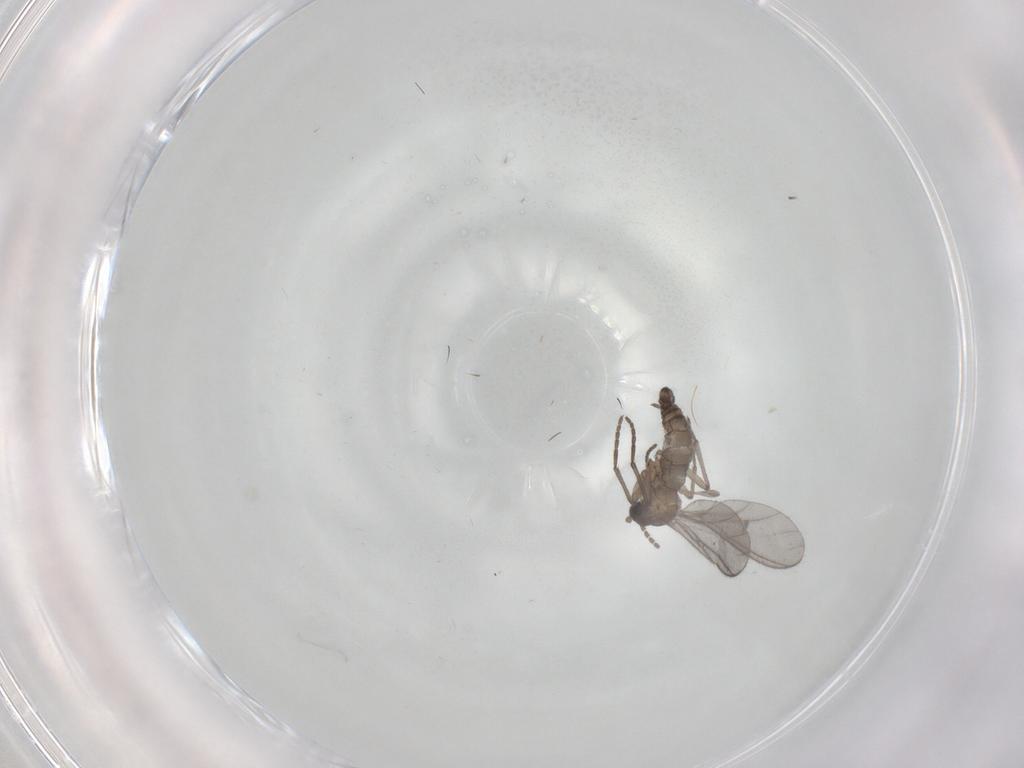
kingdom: Animalia
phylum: Arthropoda
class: Insecta
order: Diptera
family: Sciaridae
